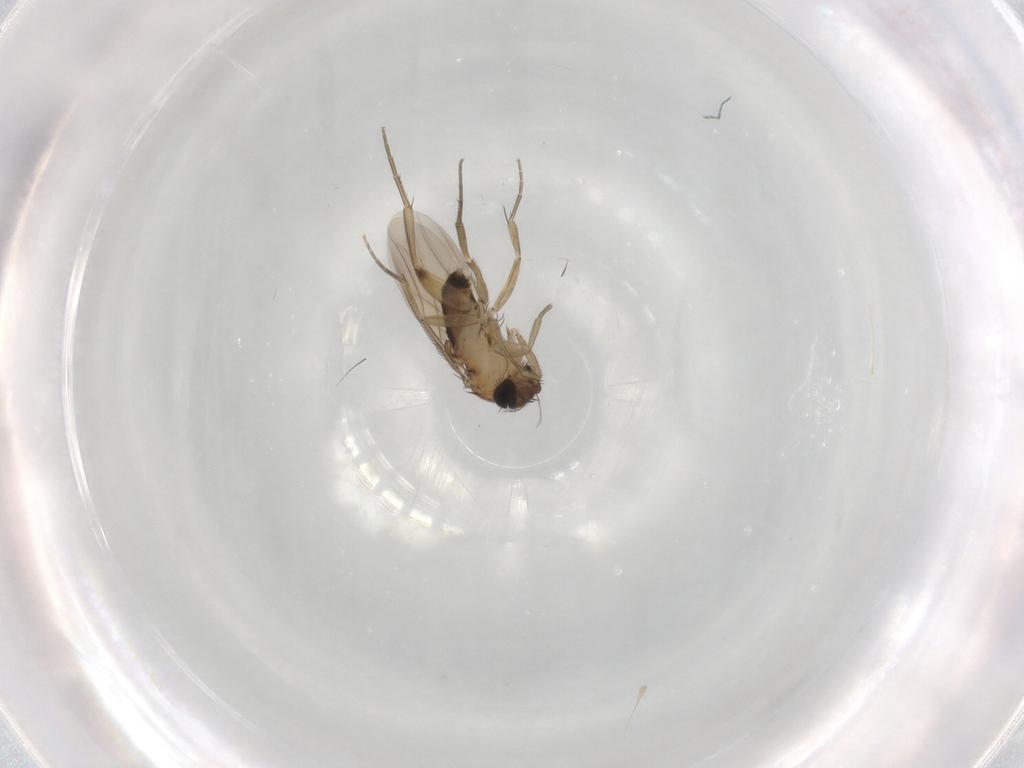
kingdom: Animalia
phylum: Arthropoda
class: Insecta
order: Diptera
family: Phoridae
